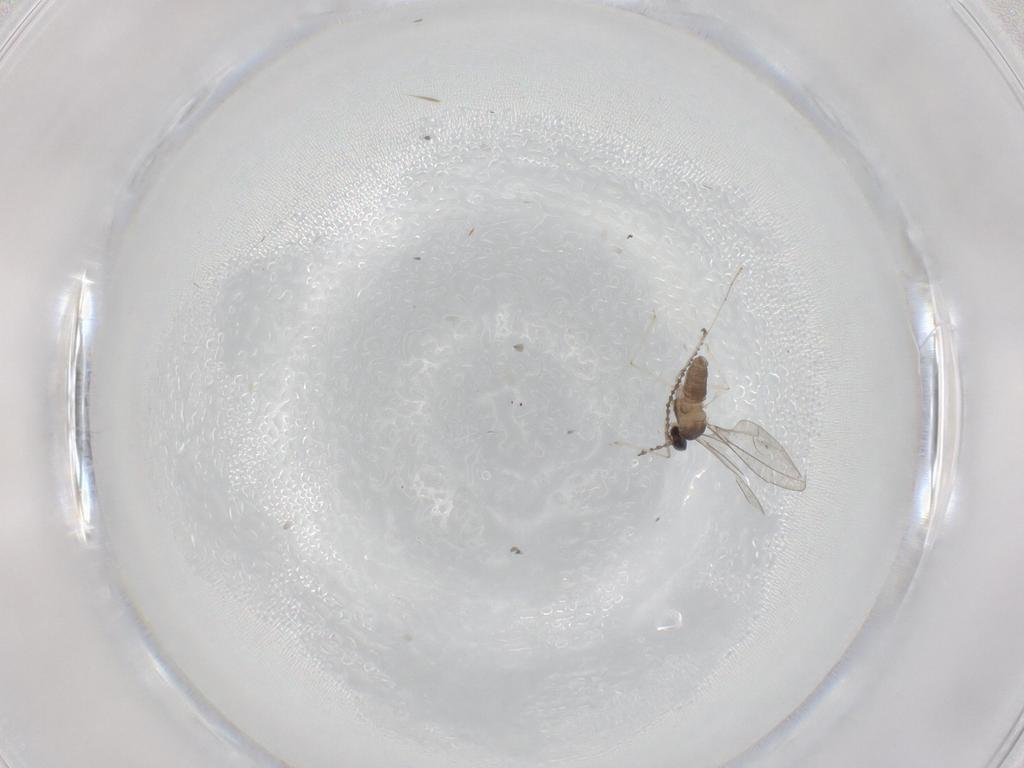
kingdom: Animalia
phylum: Arthropoda
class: Insecta
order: Diptera
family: Cecidomyiidae
